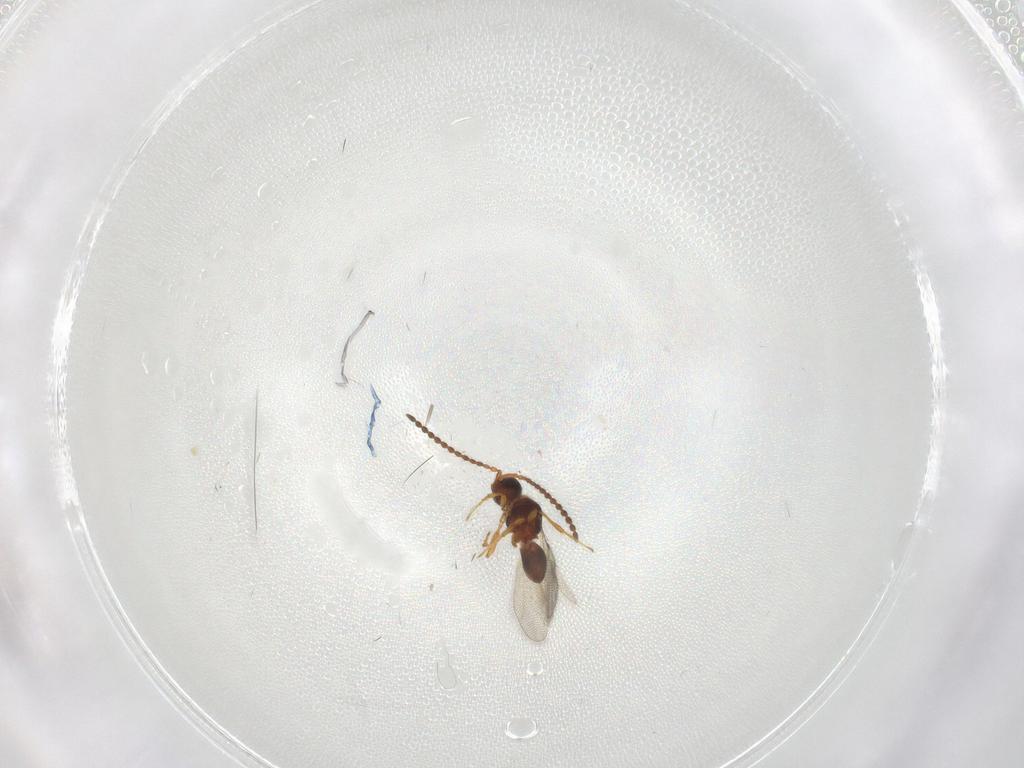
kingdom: Animalia
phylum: Arthropoda
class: Insecta
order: Hymenoptera
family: Diapriidae
